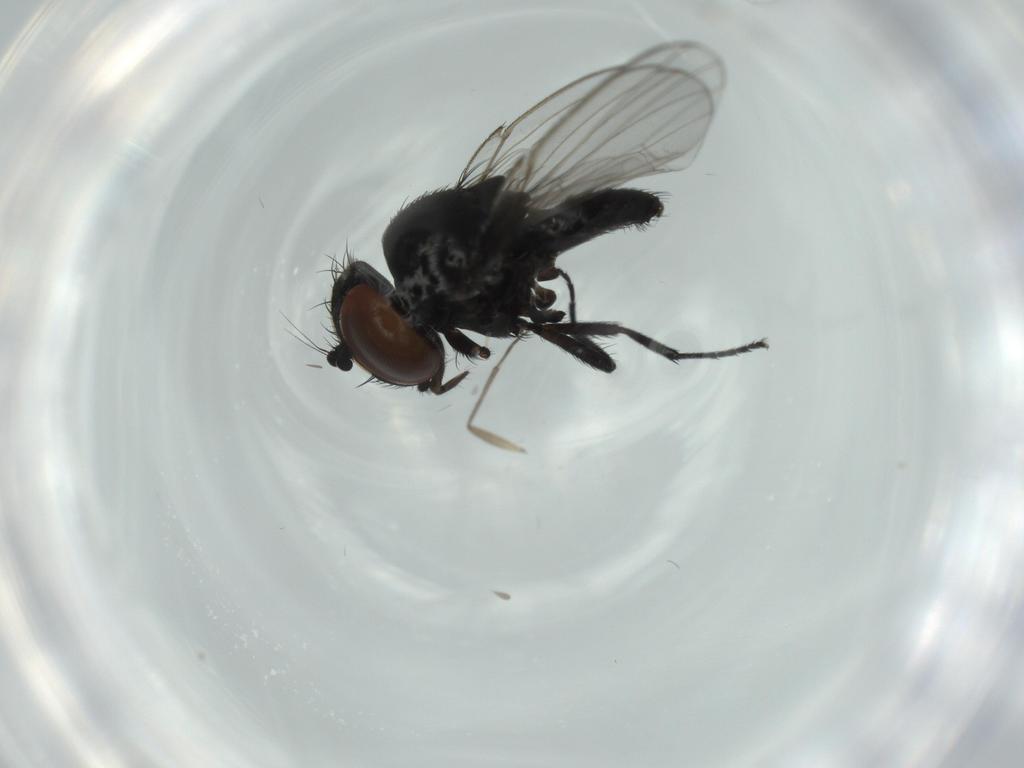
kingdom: Animalia
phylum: Arthropoda
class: Insecta
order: Diptera
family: Milichiidae
